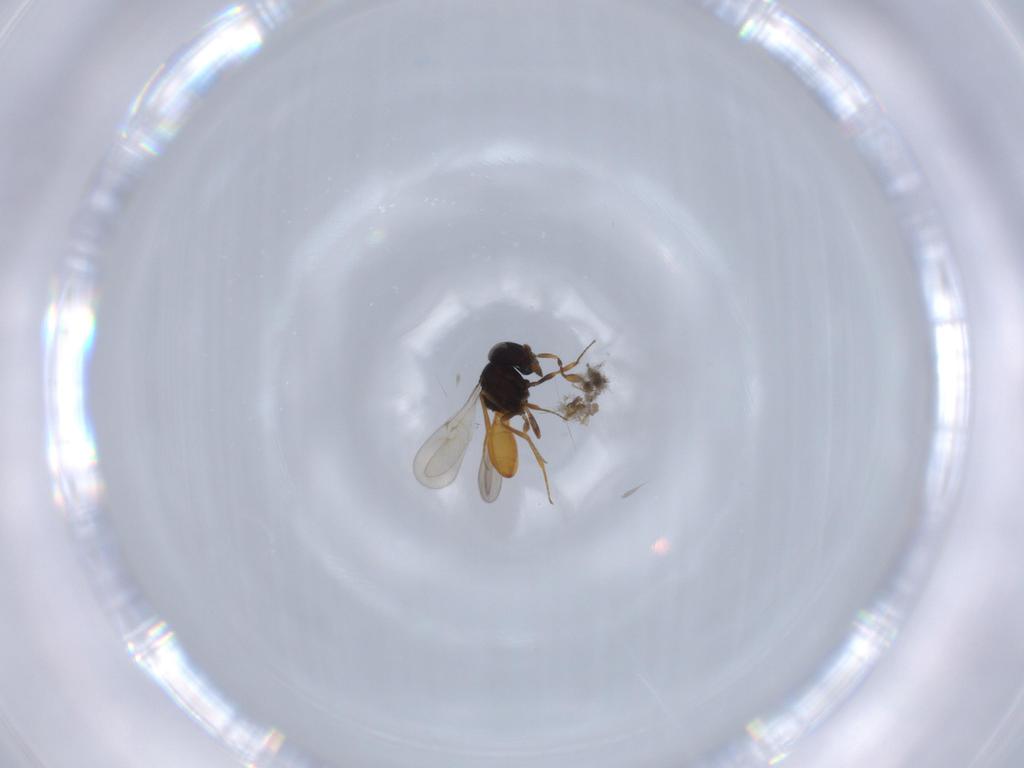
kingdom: Animalia
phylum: Arthropoda
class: Insecta
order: Hymenoptera
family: Scelionidae
